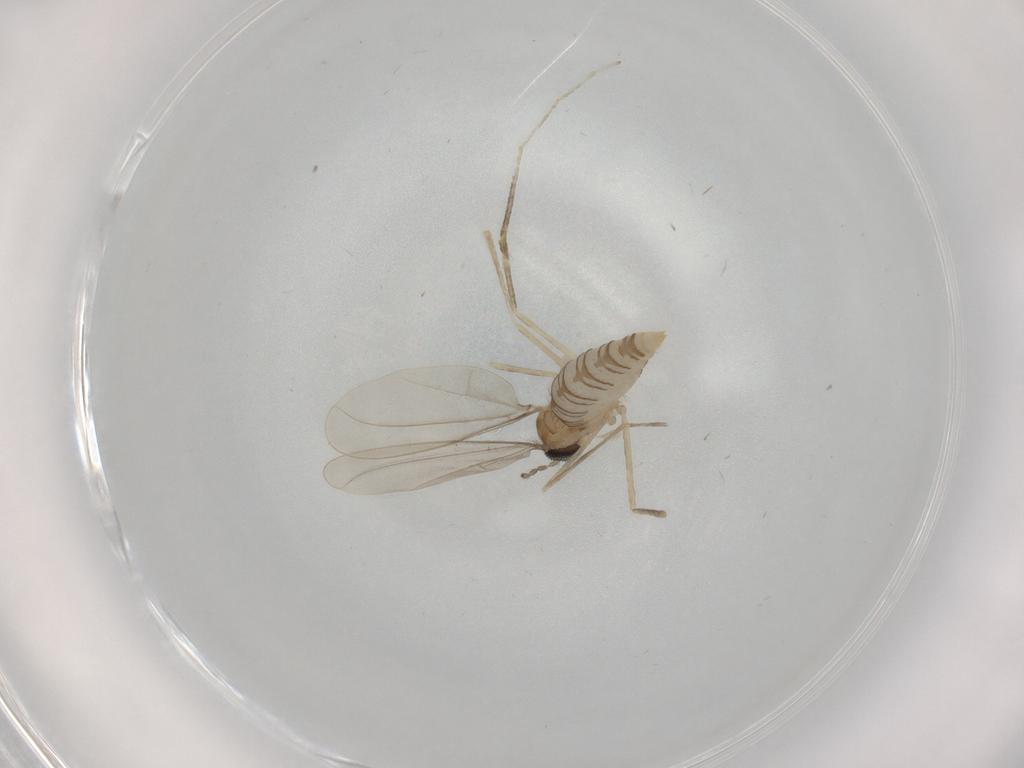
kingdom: Animalia
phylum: Arthropoda
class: Insecta
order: Diptera
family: Cecidomyiidae
